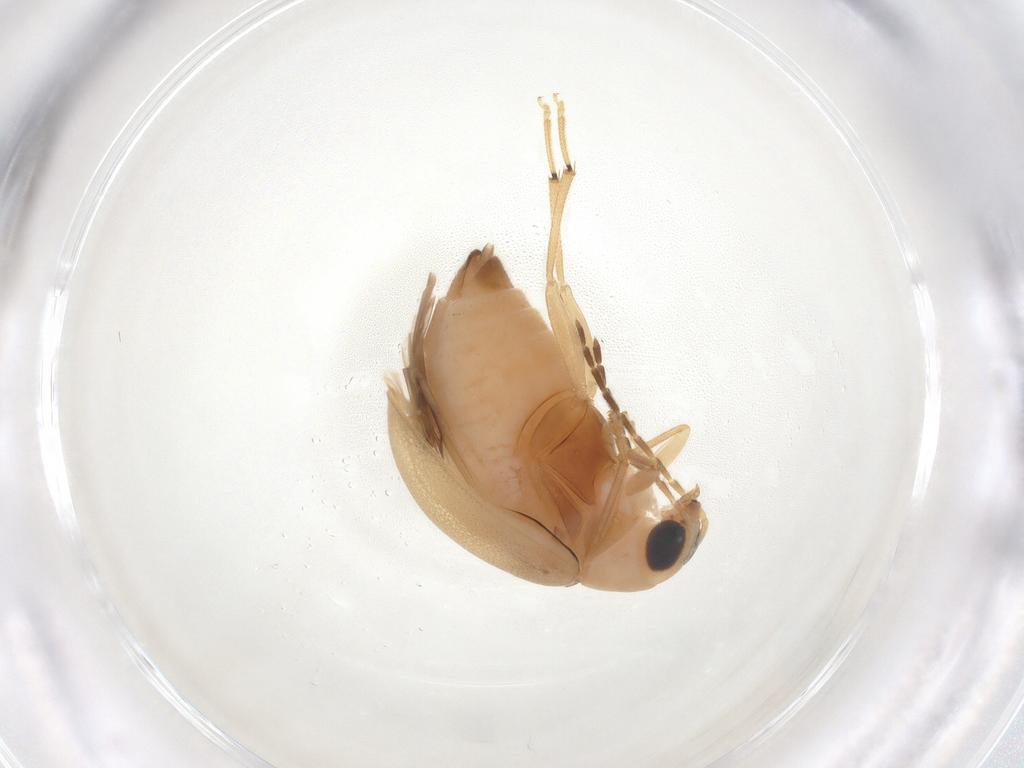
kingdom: Animalia
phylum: Arthropoda
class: Insecta
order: Coleoptera
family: Chrysomelidae
